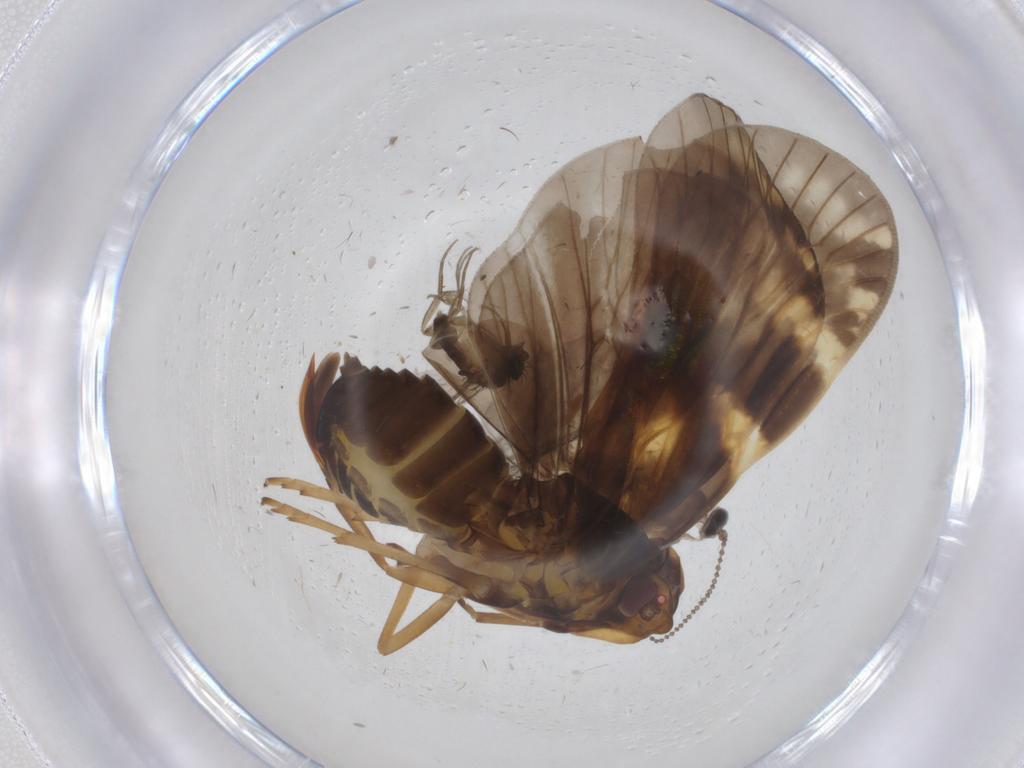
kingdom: Animalia
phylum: Arthropoda
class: Insecta
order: Diptera
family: Cecidomyiidae
